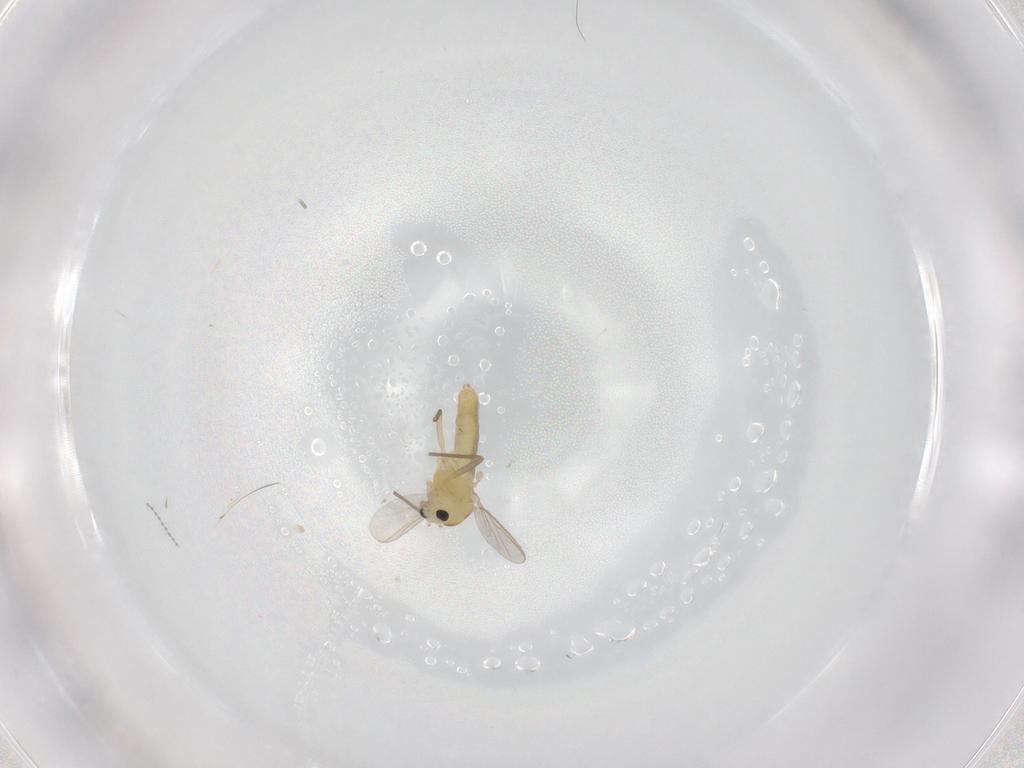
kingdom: Animalia
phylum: Arthropoda
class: Insecta
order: Diptera
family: Chironomidae
